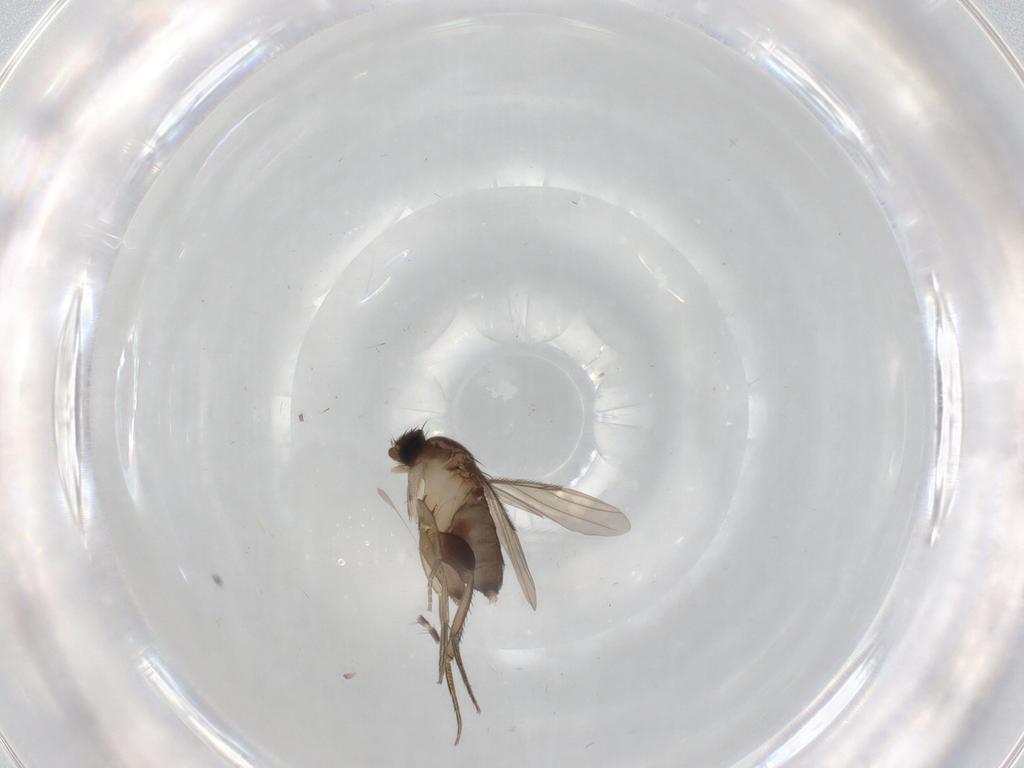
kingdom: Animalia
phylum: Arthropoda
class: Insecta
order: Diptera
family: Limoniidae
